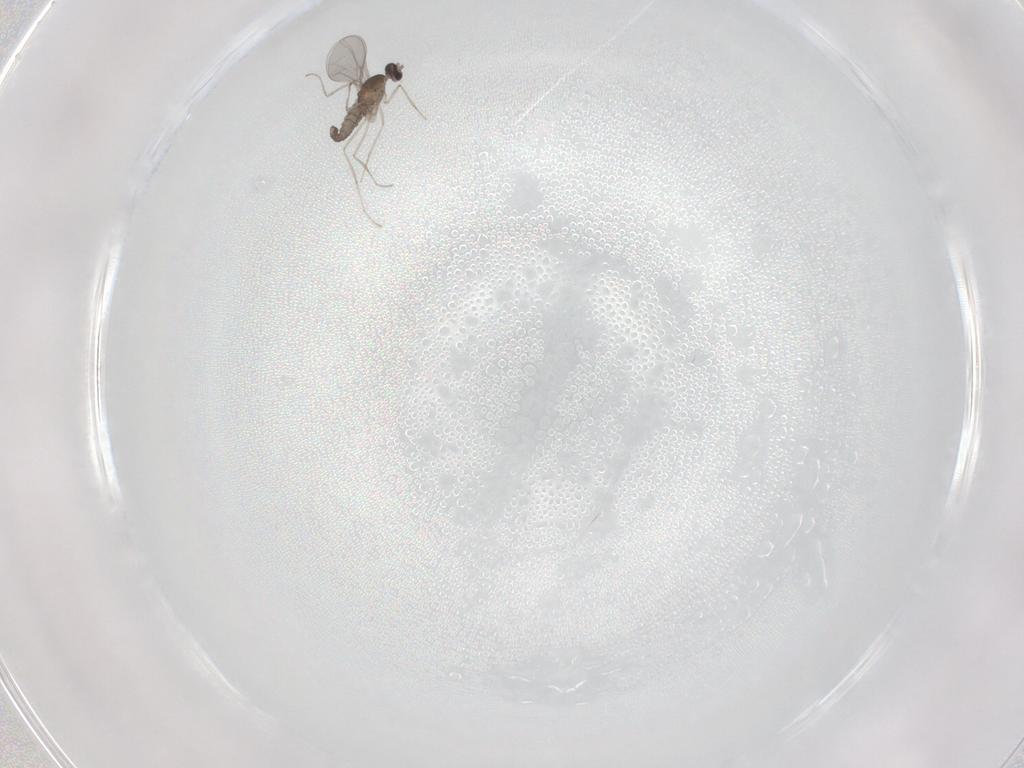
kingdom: Animalia
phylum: Arthropoda
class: Insecta
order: Diptera
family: Cecidomyiidae
